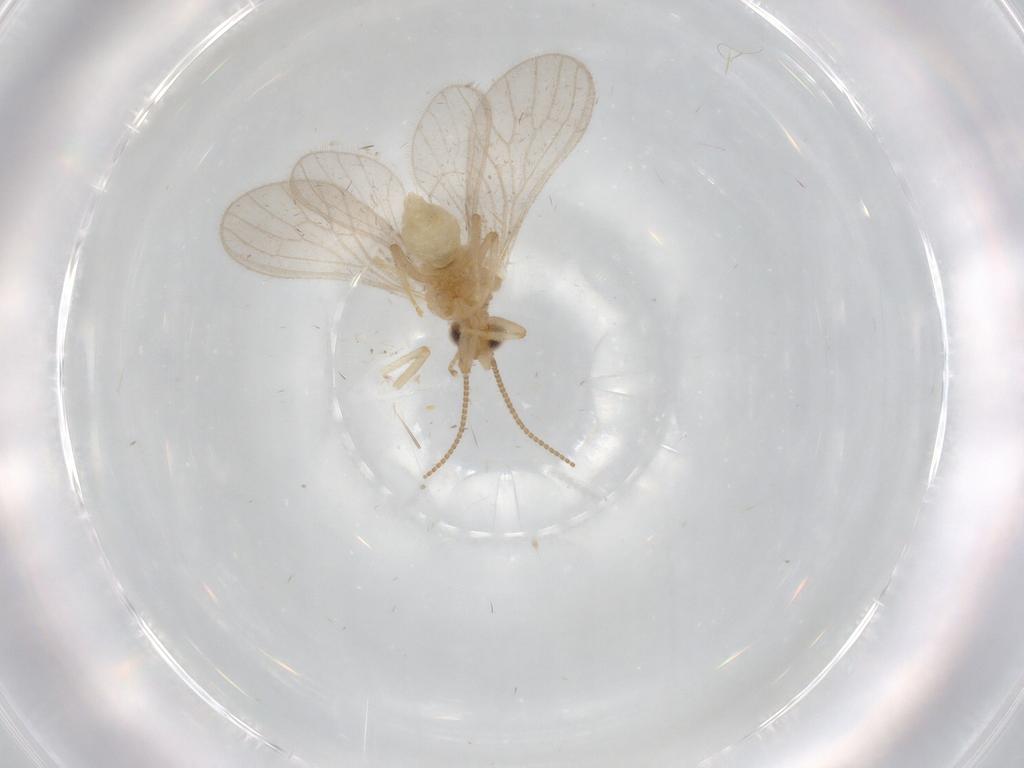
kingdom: Animalia
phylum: Arthropoda
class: Insecta
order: Neuroptera
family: Coniopterygidae
